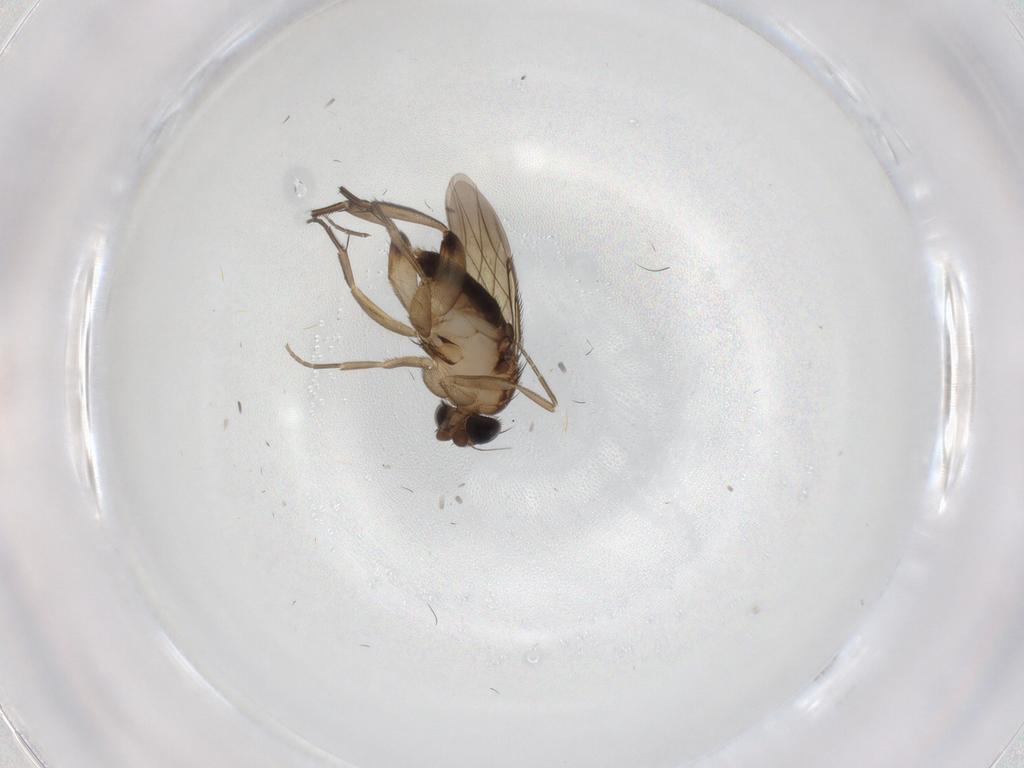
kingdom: Animalia
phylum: Arthropoda
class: Insecta
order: Diptera
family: Phoridae
